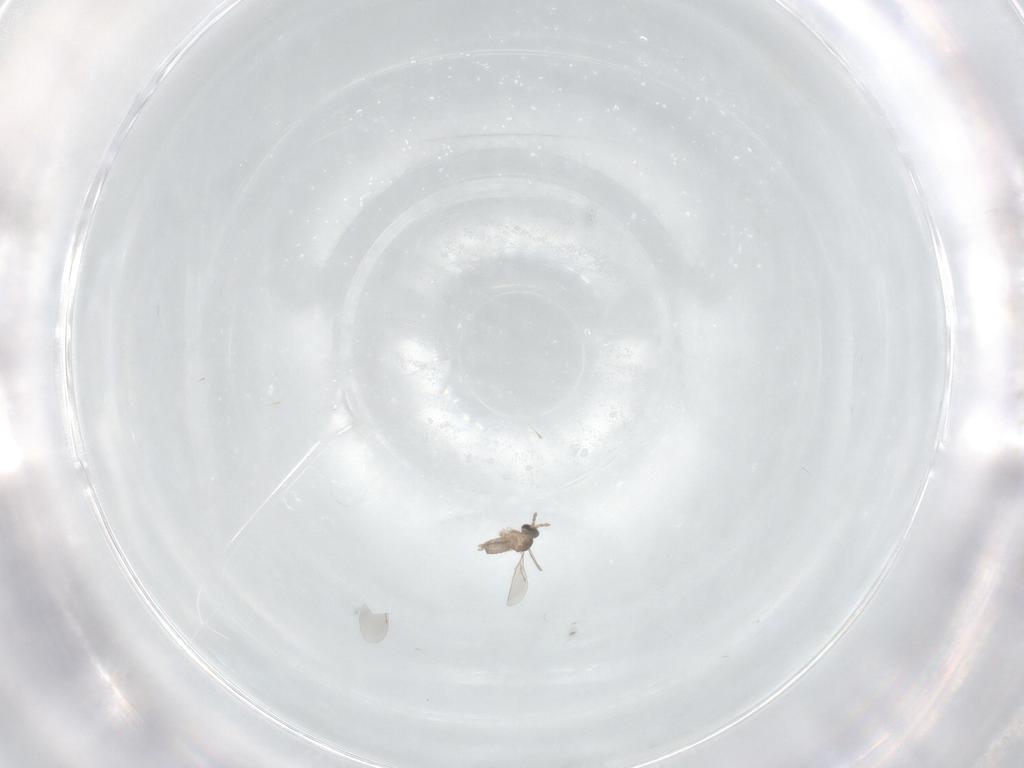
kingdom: Animalia
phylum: Arthropoda
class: Insecta
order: Diptera
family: Cecidomyiidae
